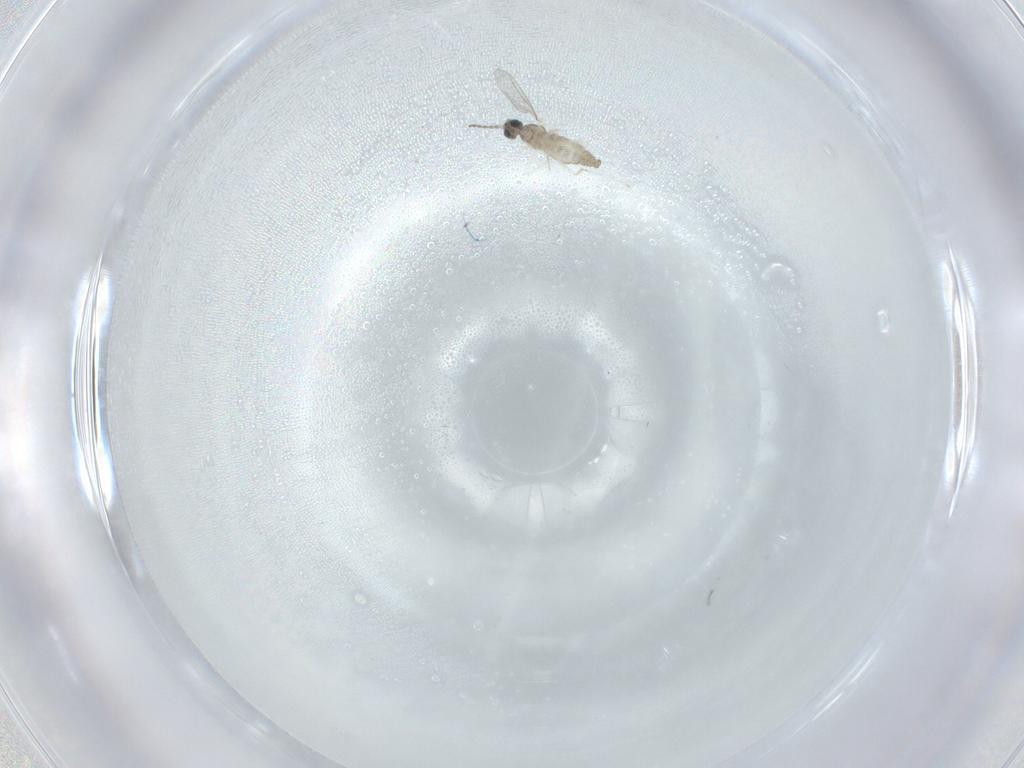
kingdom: Animalia
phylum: Arthropoda
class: Insecta
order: Diptera
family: Cecidomyiidae
